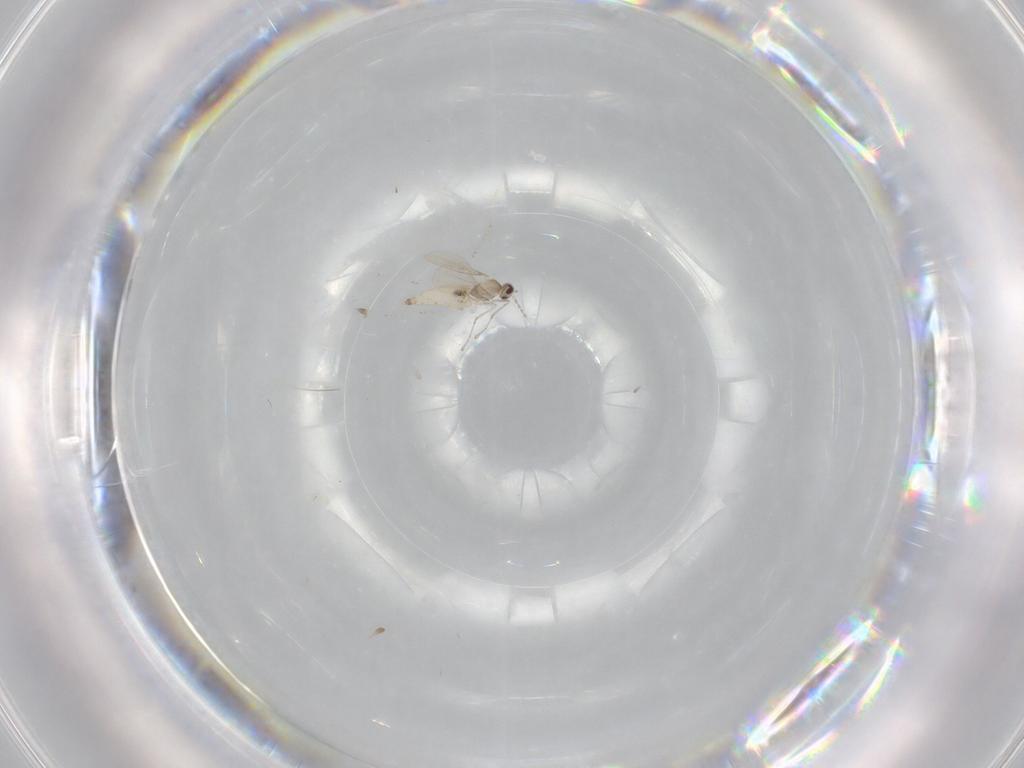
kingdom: Animalia
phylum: Arthropoda
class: Insecta
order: Diptera
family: Cecidomyiidae
